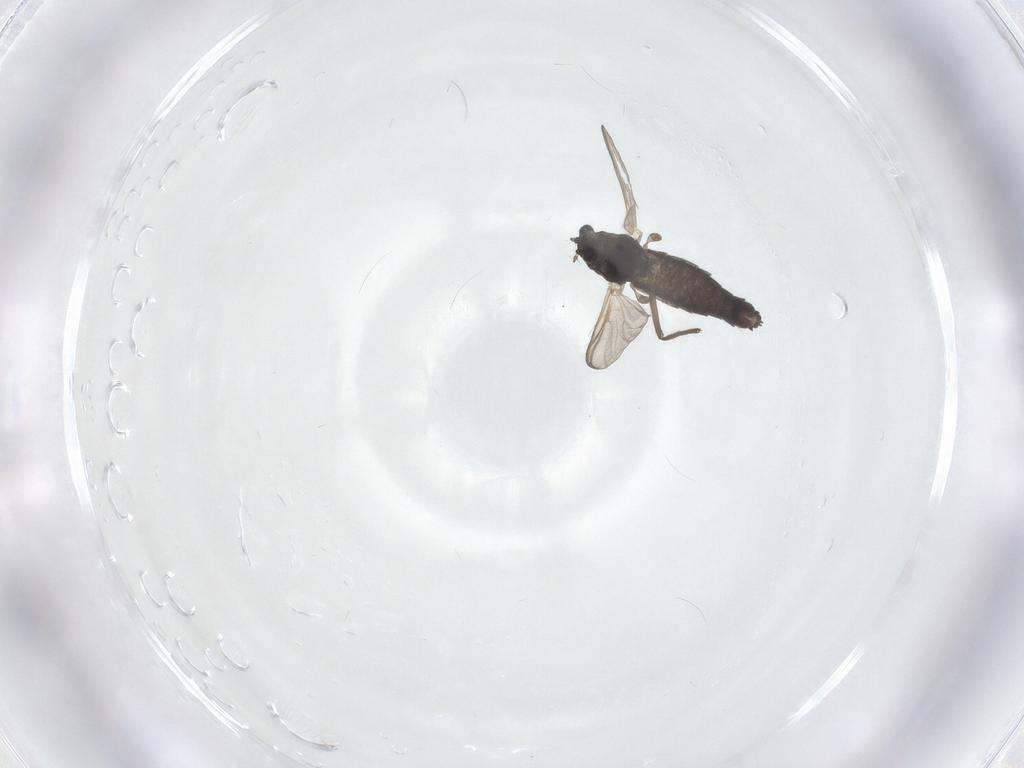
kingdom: Animalia
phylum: Arthropoda
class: Insecta
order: Diptera
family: Chironomidae
